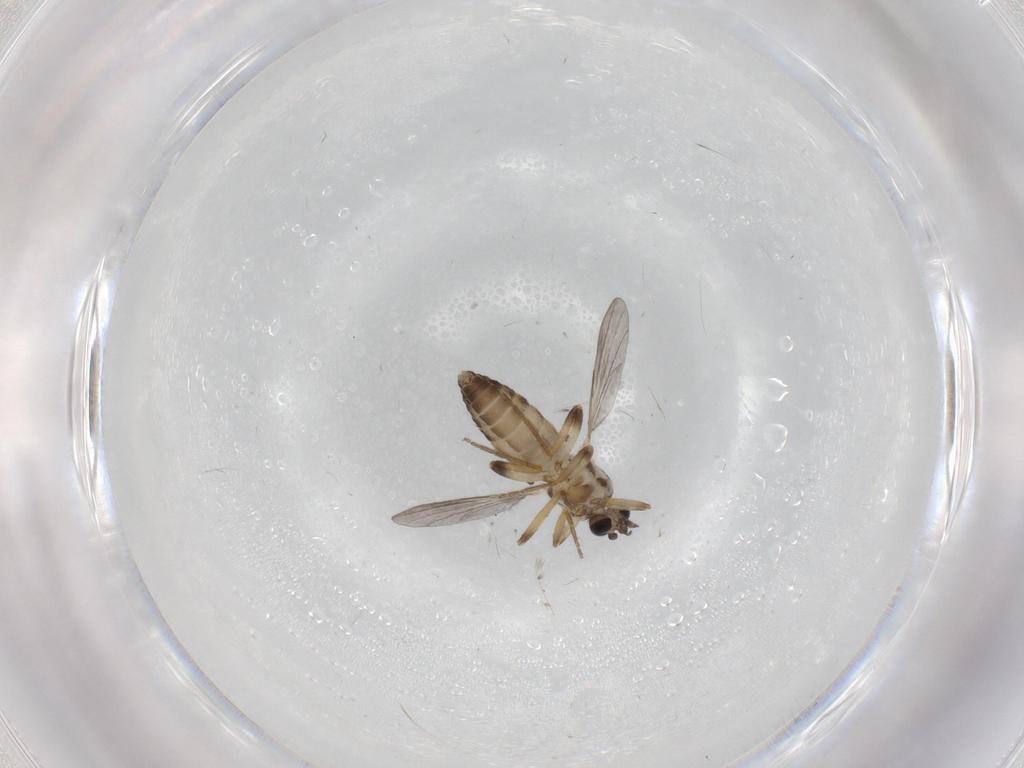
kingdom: Animalia
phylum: Arthropoda
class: Insecta
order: Diptera
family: Ceratopogonidae
